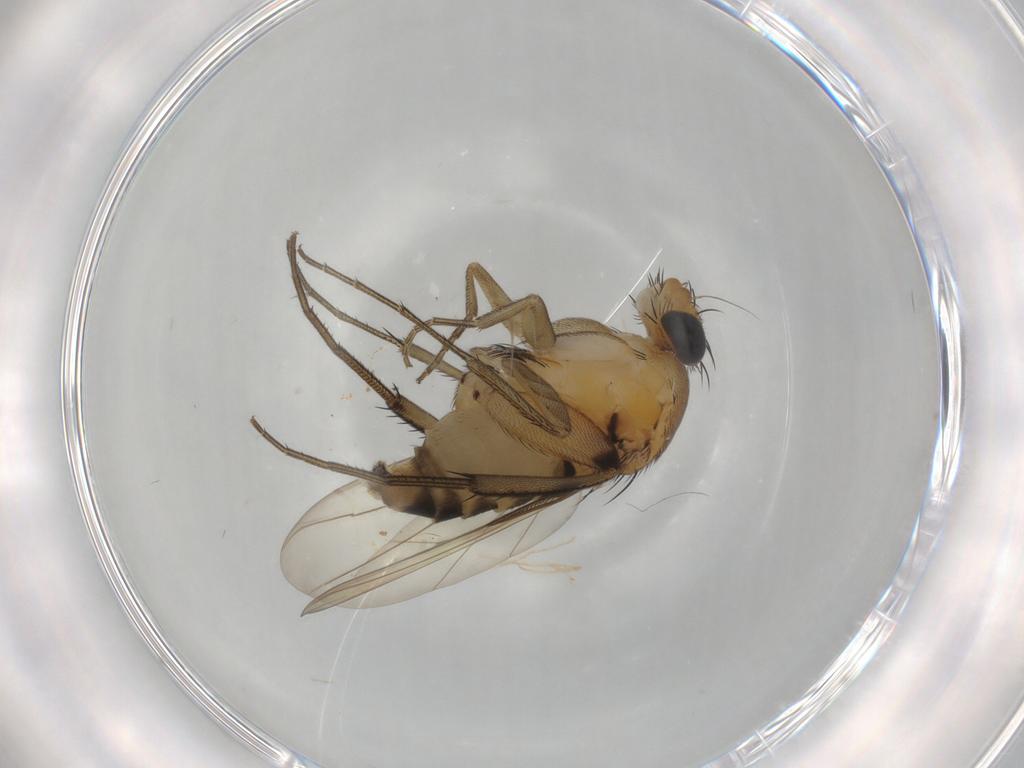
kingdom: Animalia
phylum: Arthropoda
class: Insecta
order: Diptera
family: Phoridae
